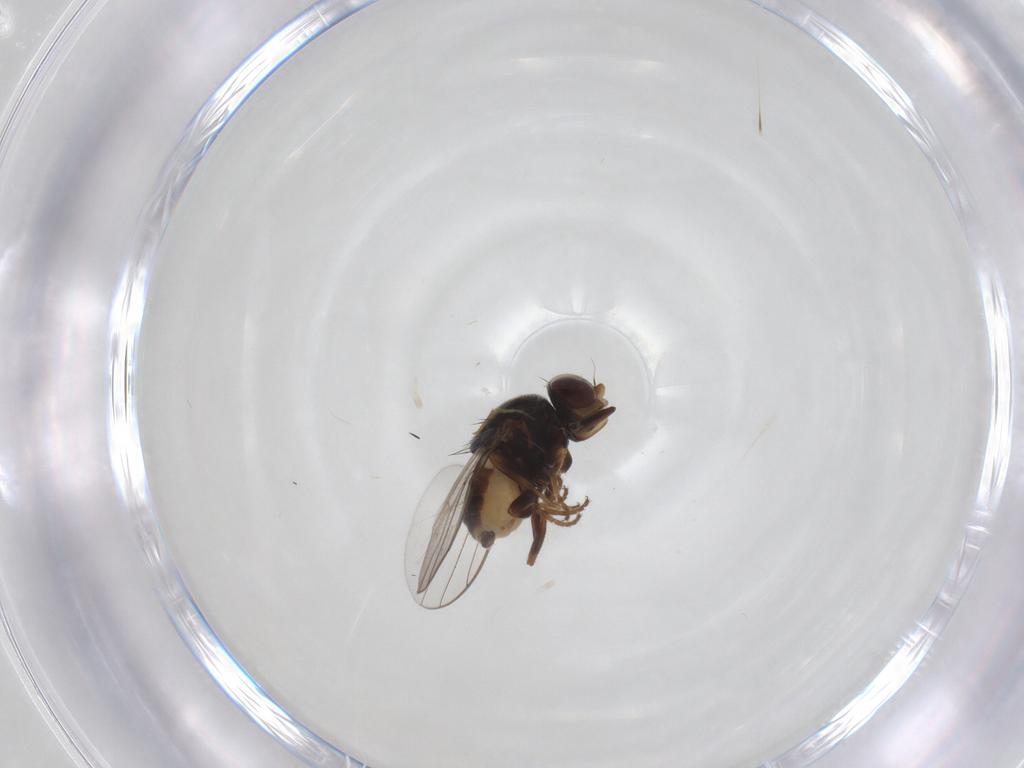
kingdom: Animalia
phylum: Arthropoda
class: Insecta
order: Diptera
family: Chloropidae
